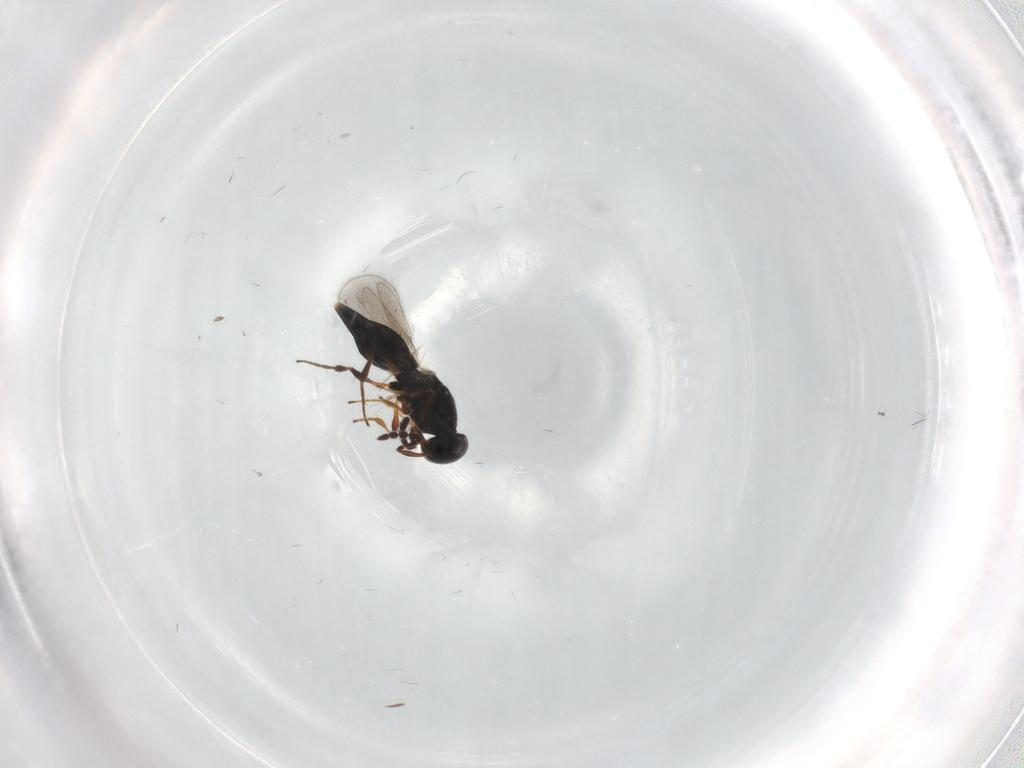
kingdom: Animalia
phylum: Arthropoda
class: Insecta
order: Hymenoptera
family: Platygastridae
